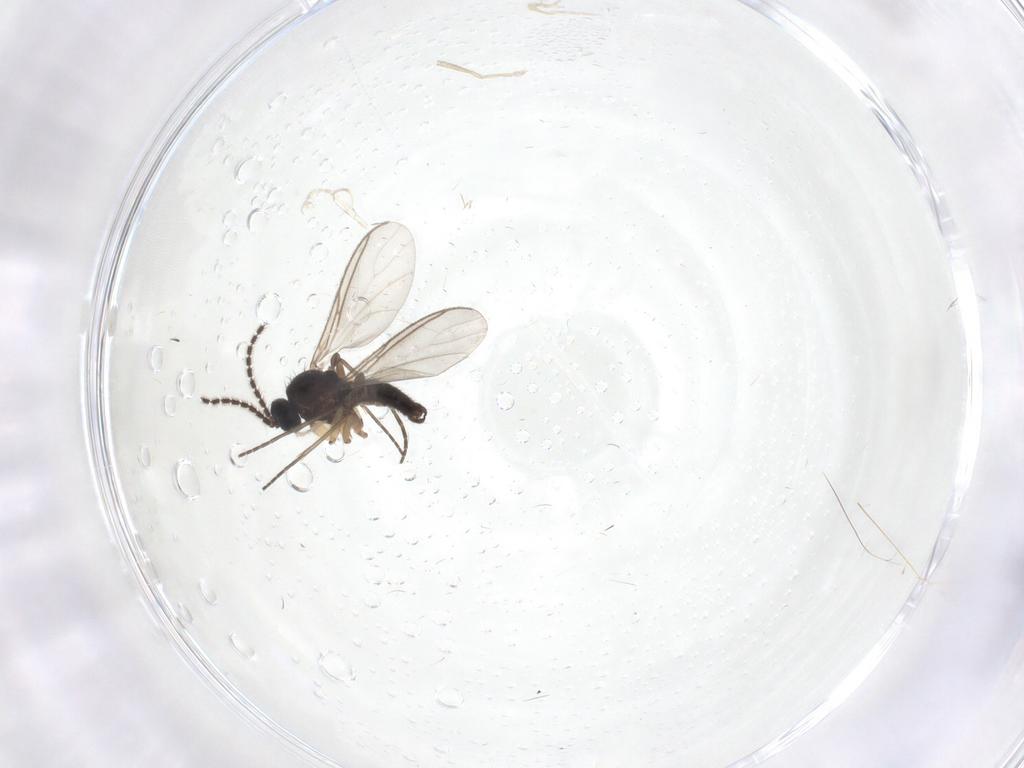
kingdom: Animalia
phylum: Arthropoda
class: Insecta
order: Diptera
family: Sciaridae
